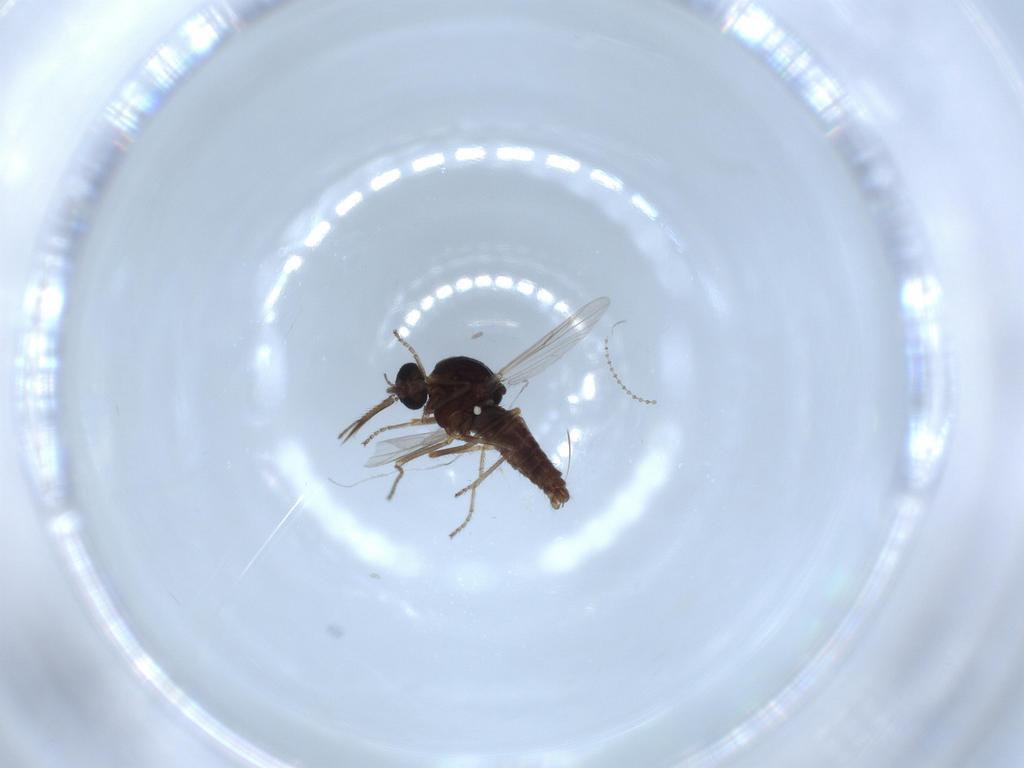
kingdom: Animalia
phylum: Arthropoda
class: Insecta
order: Diptera
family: Ceratopogonidae
